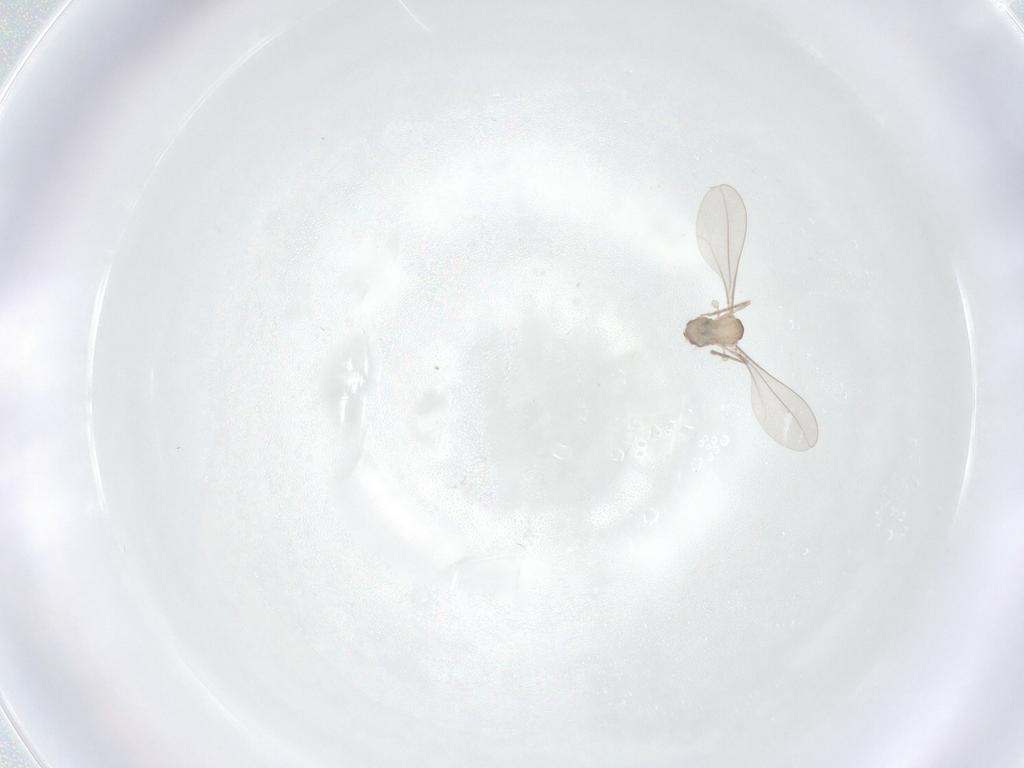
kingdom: Animalia
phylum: Arthropoda
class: Insecta
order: Diptera
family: Cecidomyiidae
